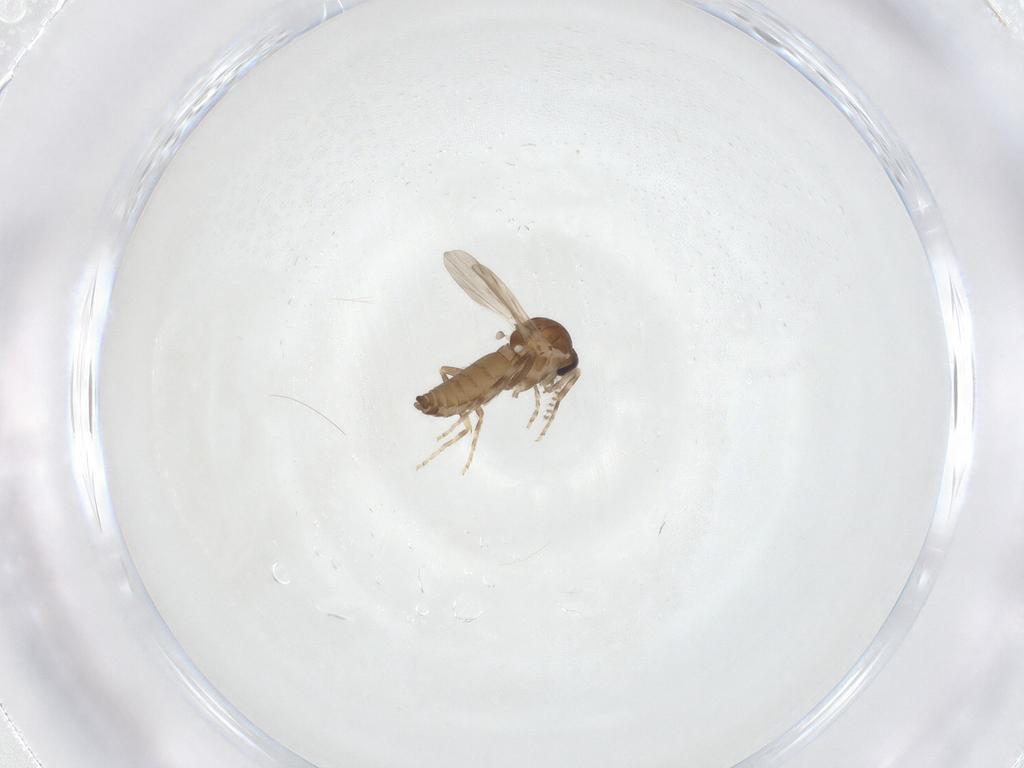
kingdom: Animalia
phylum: Arthropoda
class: Insecta
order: Diptera
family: Ceratopogonidae
